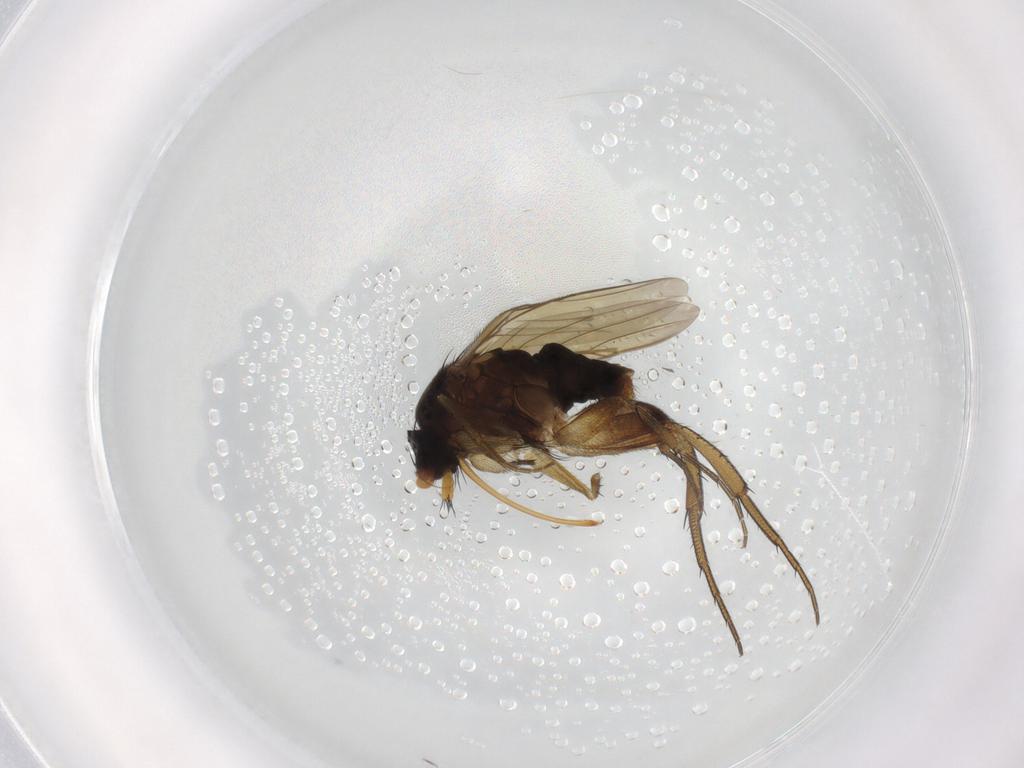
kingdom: Animalia
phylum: Arthropoda
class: Insecta
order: Diptera
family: Phoridae
